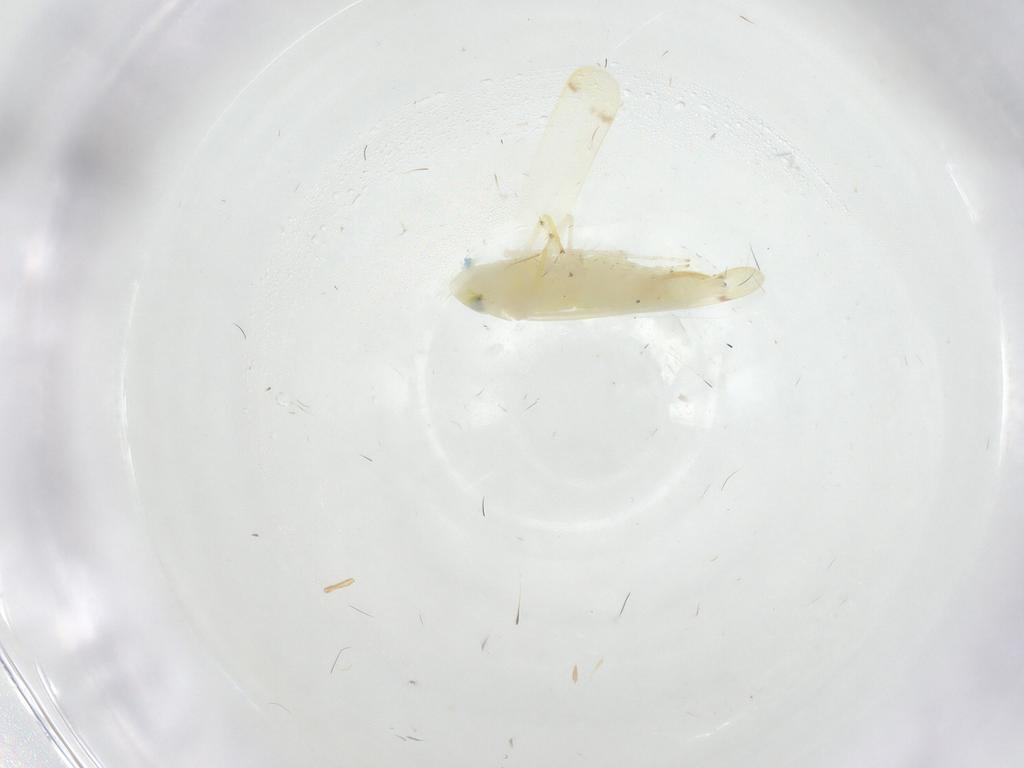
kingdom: Animalia
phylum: Arthropoda
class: Insecta
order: Hemiptera
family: Cicadellidae
